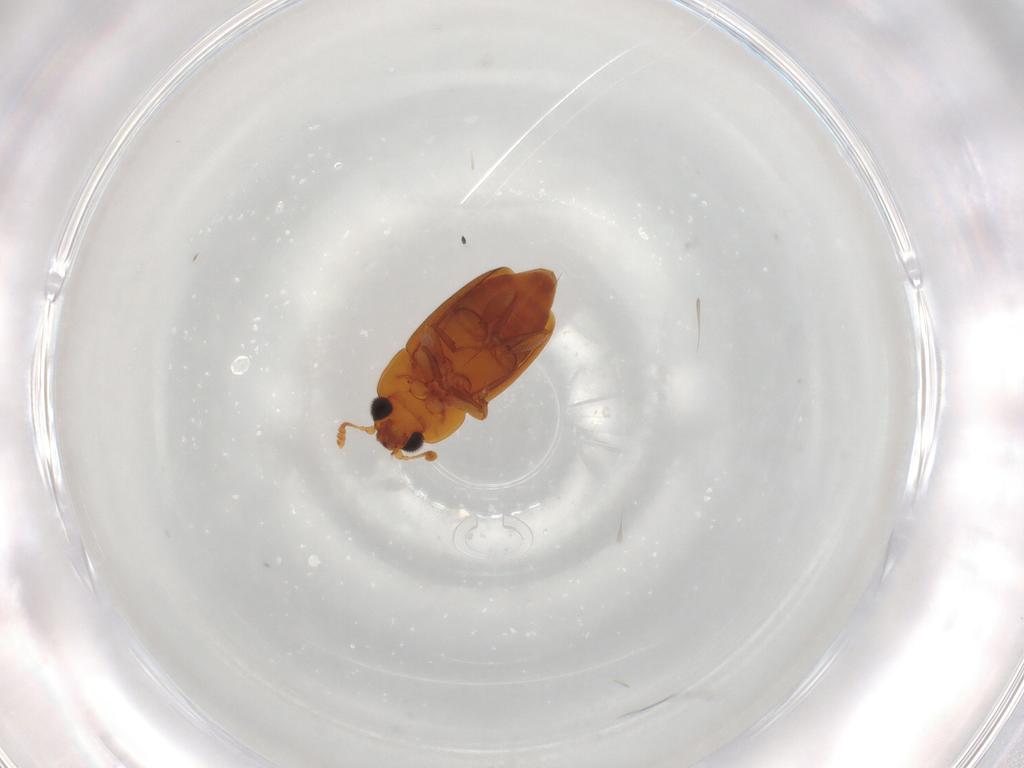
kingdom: Animalia
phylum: Arthropoda
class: Insecta
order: Coleoptera
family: Nitidulidae
